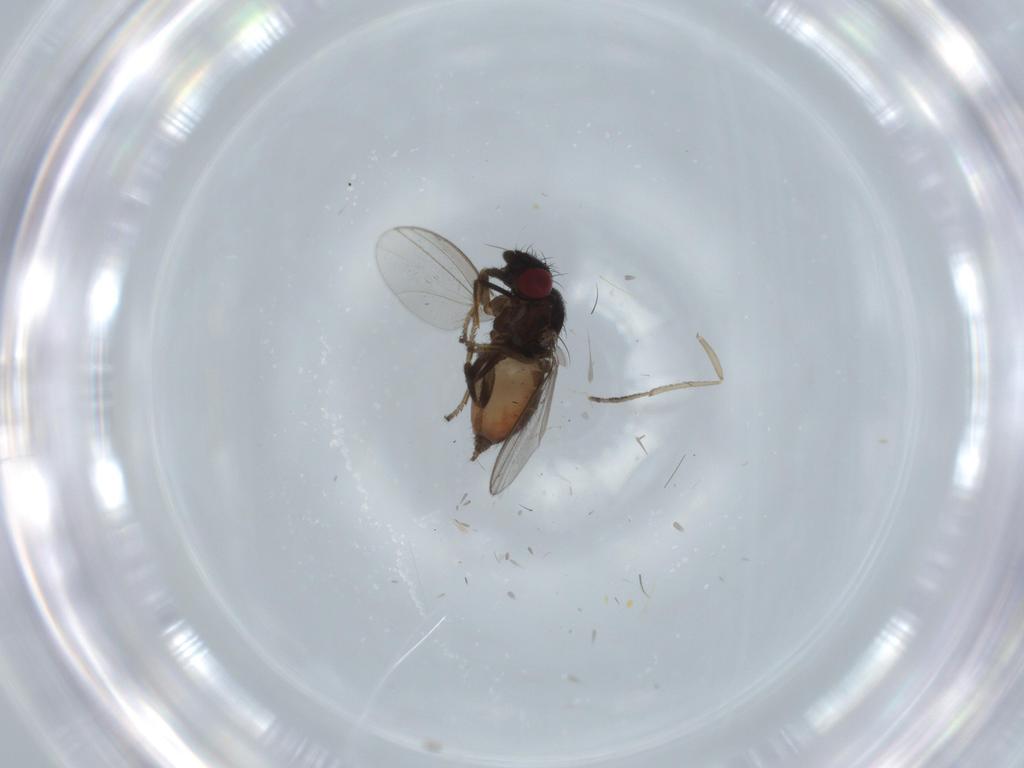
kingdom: Animalia
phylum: Arthropoda
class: Insecta
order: Diptera
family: Milichiidae
